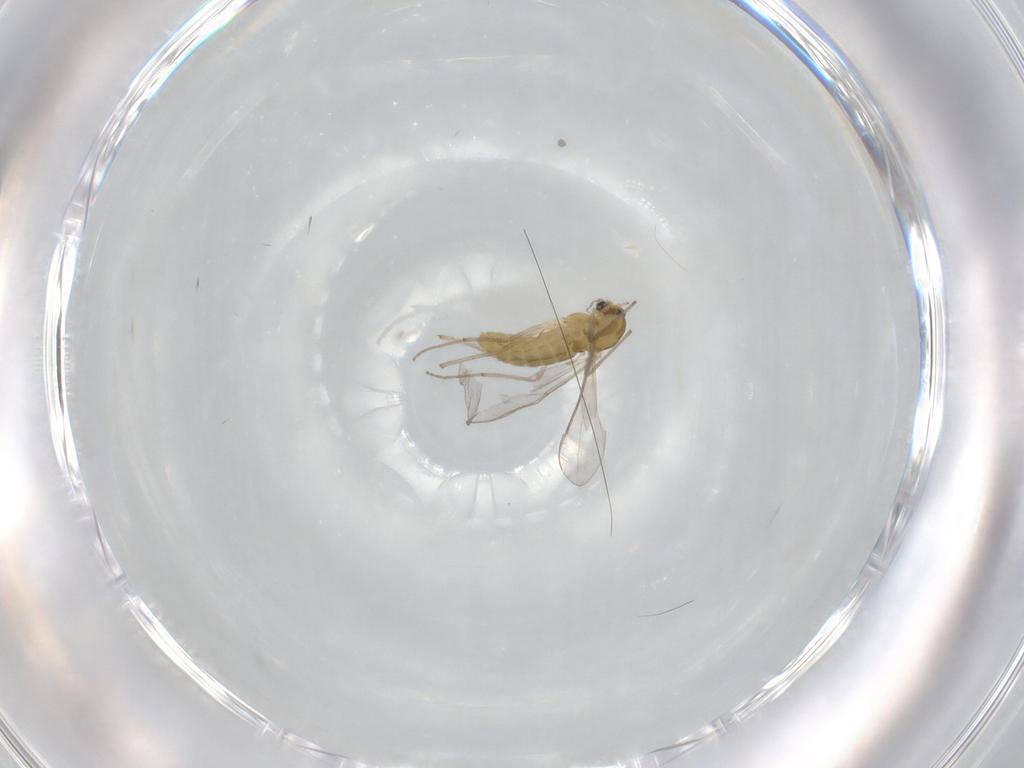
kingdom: Animalia
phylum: Arthropoda
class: Insecta
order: Diptera
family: Chironomidae
